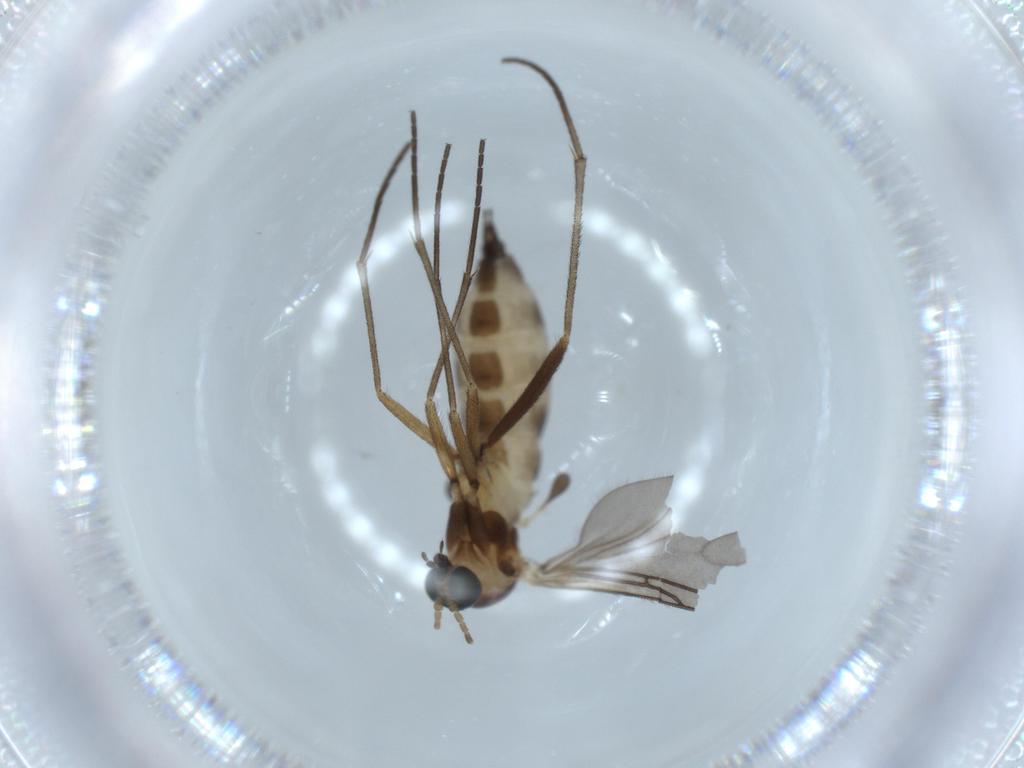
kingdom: Animalia
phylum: Arthropoda
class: Insecta
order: Diptera
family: Sciaridae
